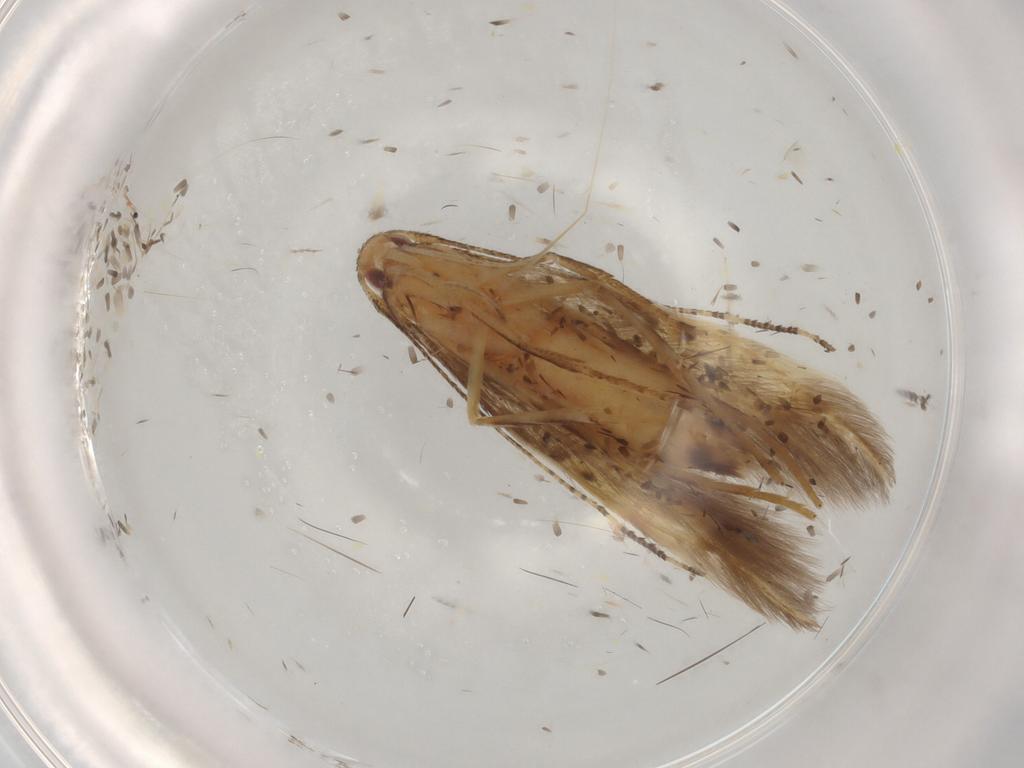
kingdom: Animalia
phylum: Arthropoda
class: Insecta
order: Lepidoptera
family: Cosmopterigidae
